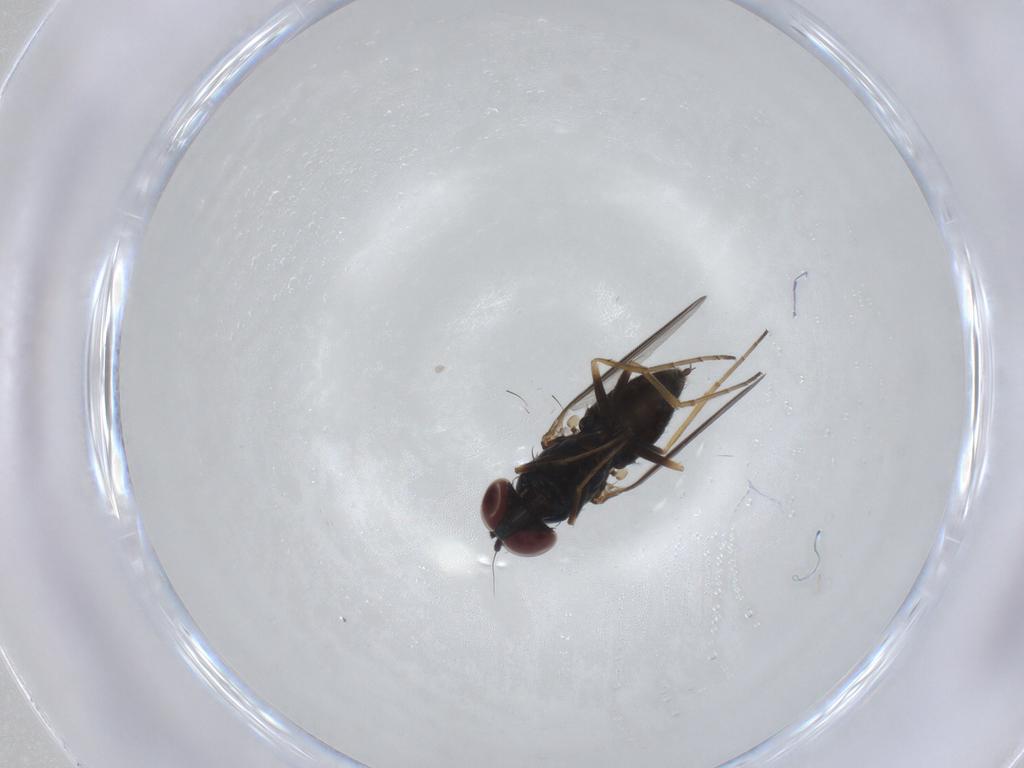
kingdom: Animalia
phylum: Arthropoda
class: Insecta
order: Diptera
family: Dolichopodidae
